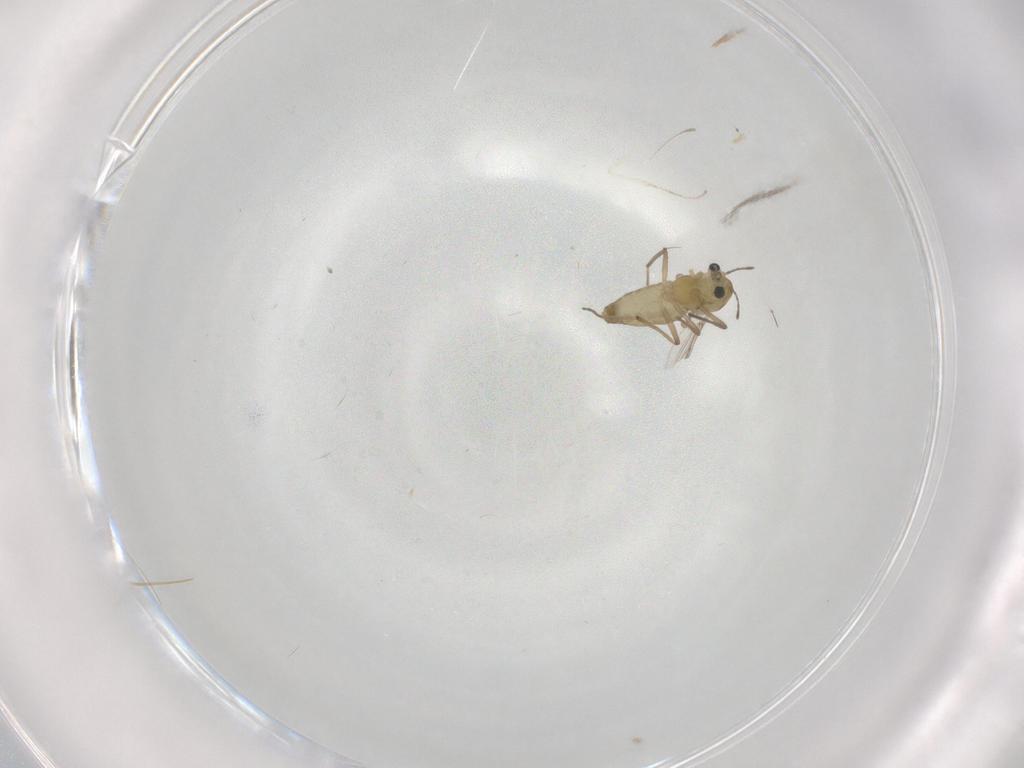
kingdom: Animalia
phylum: Arthropoda
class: Insecta
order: Diptera
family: Cecidomyiidae
